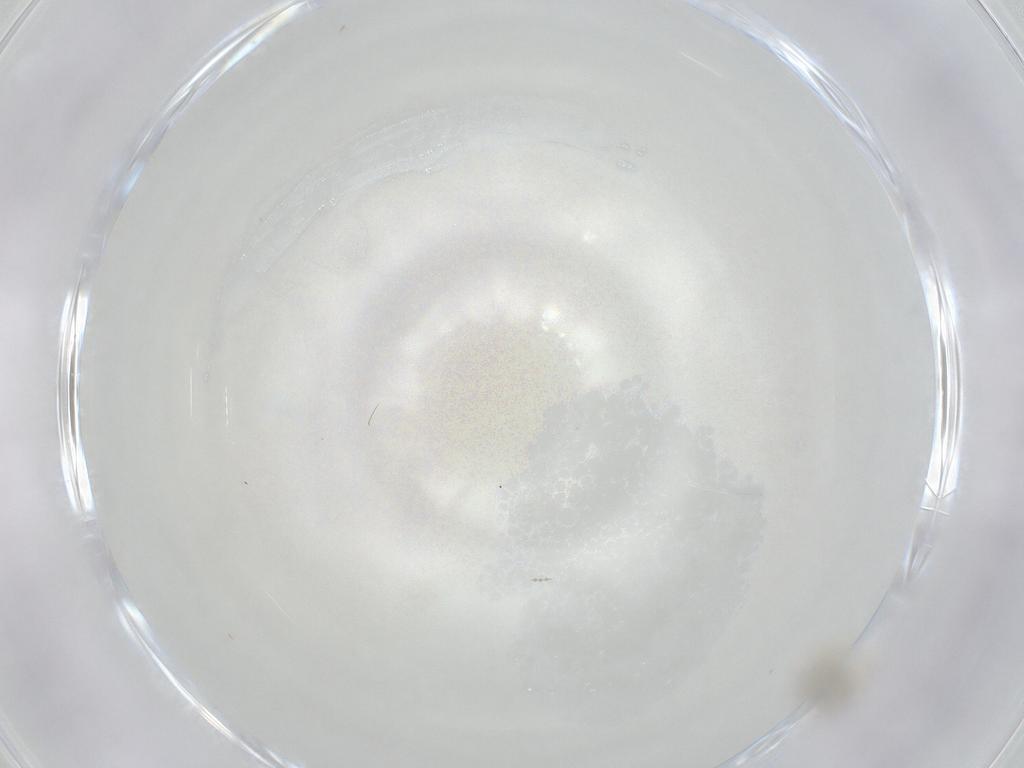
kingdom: Animalia
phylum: Arthropoda
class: Insecta
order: Diptera
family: Cecidomyiidae
